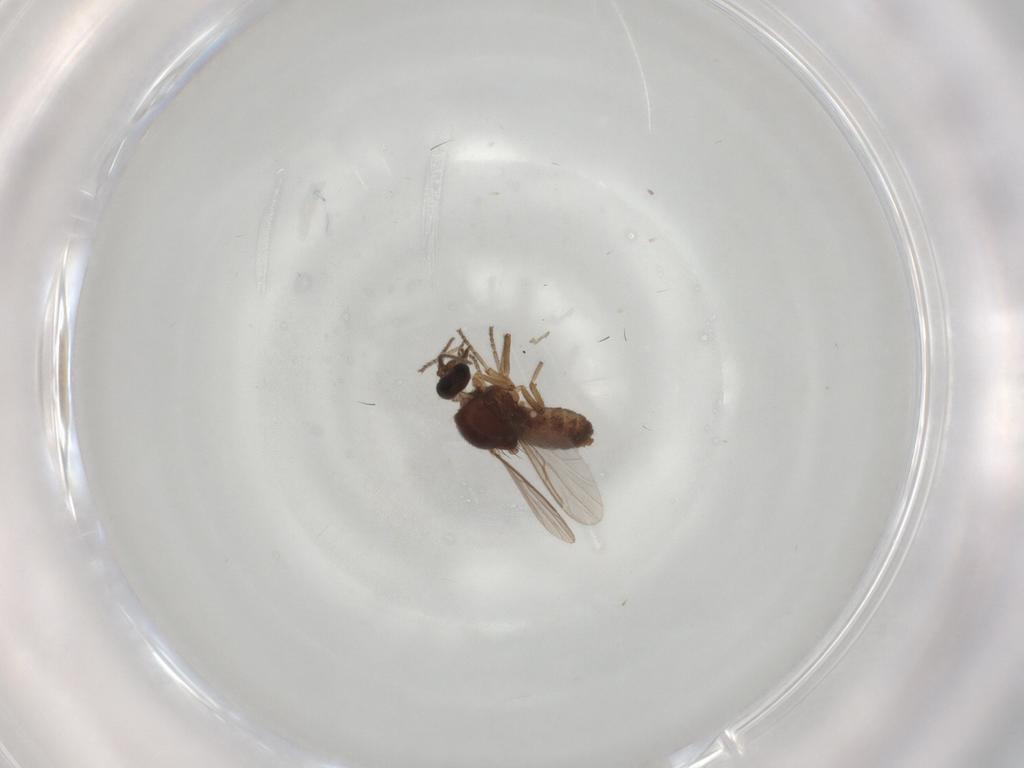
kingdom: Animalia
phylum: Arthropoda
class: Insecta
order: Diptera
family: Ceratopogonidae
